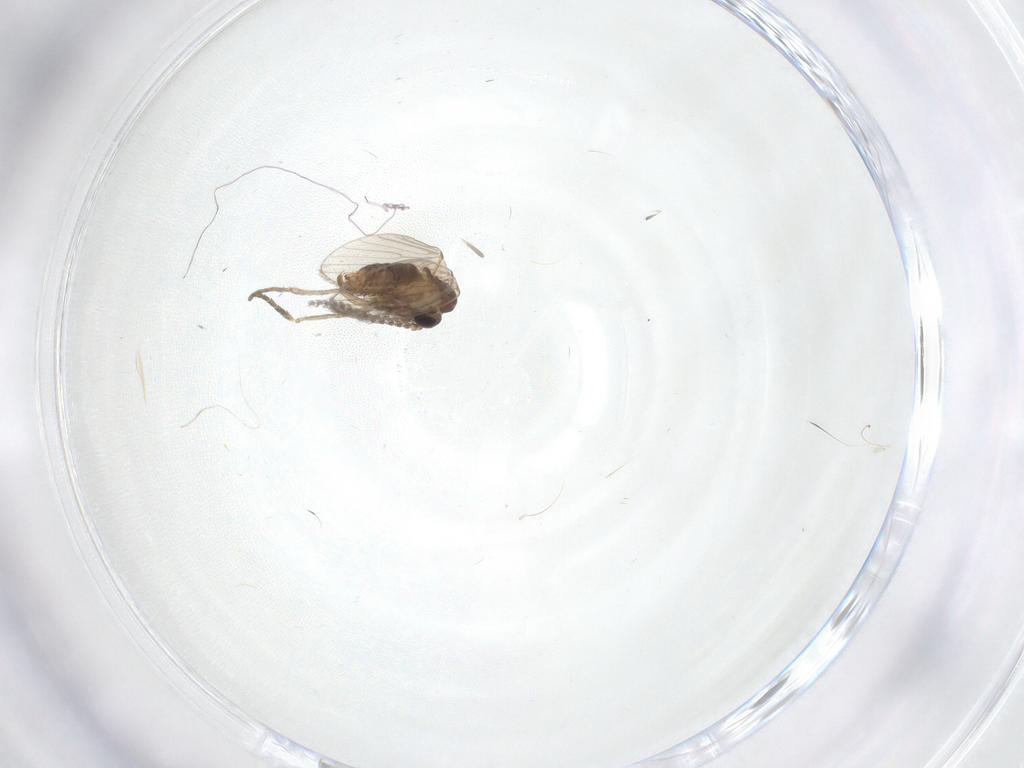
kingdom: Animalia
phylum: Arthropoda
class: Insecta
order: Diptera
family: Cecidomyiidae
